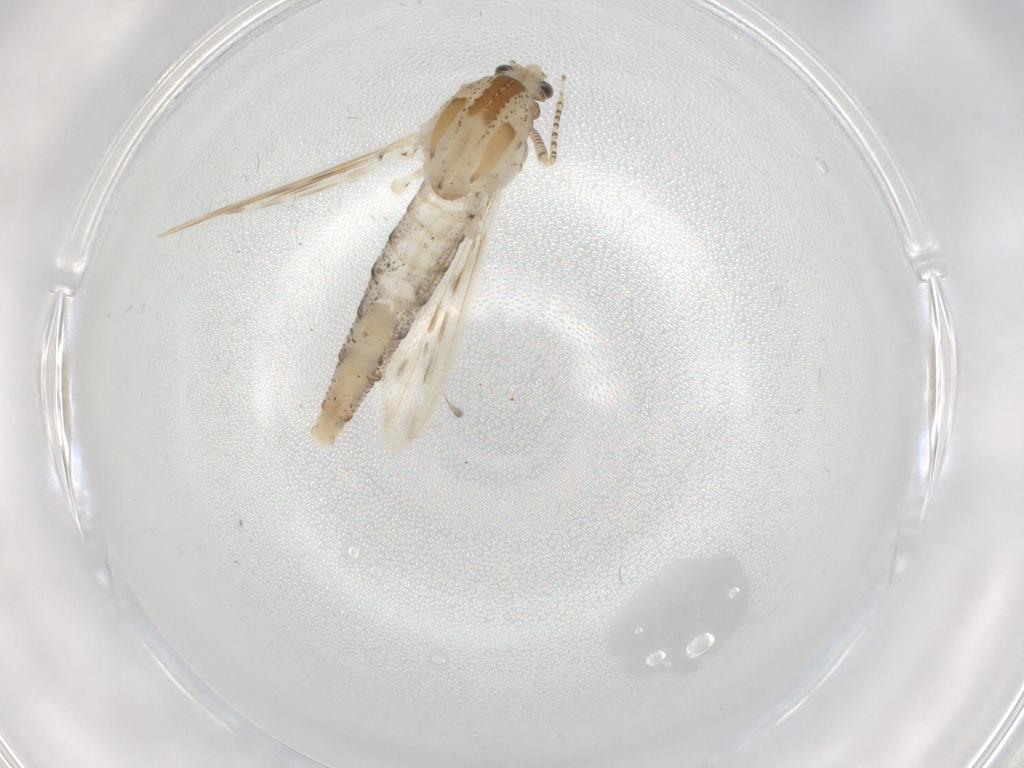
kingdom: Animalia
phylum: Arthropoda
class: Insecta
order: Diptera
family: Chaoboridae
